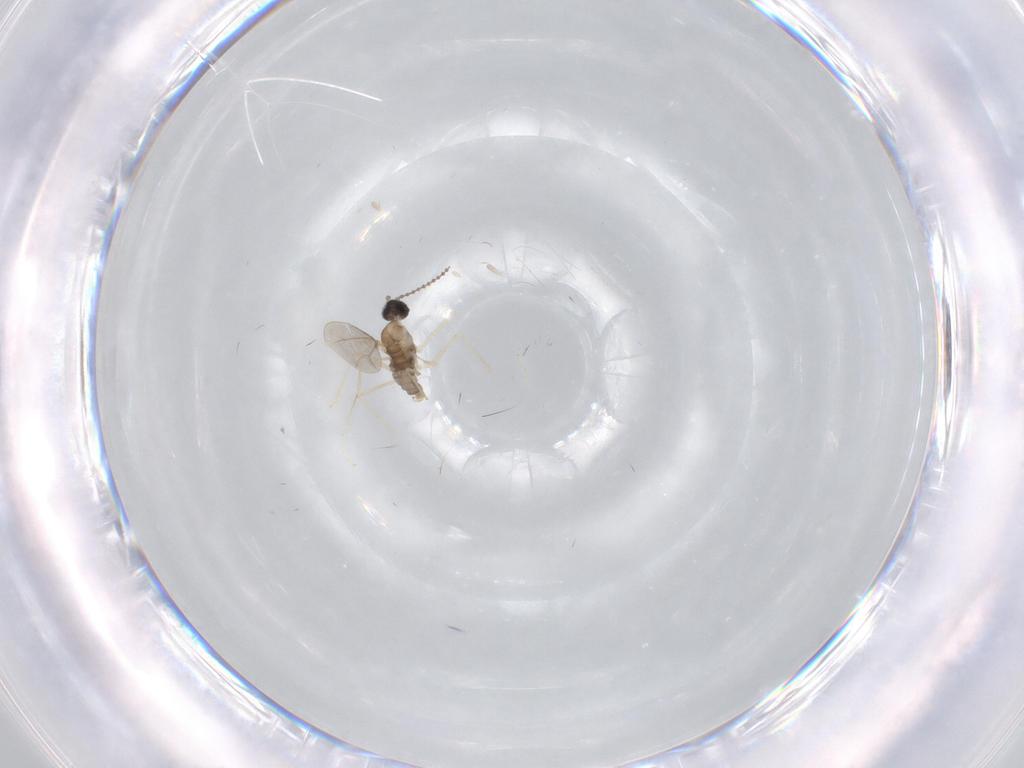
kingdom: Animalia
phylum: Arthropoda
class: Insecta
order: Diptera
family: Cecidomyiidae
